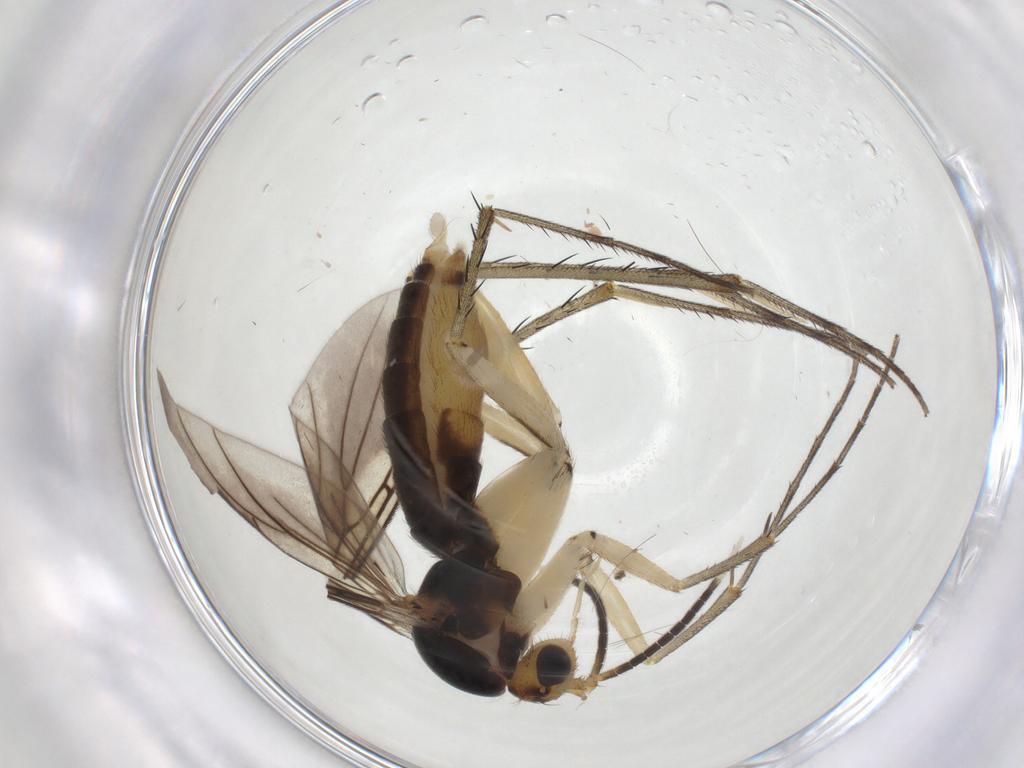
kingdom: Animalia
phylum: Arthropoda
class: Insecta
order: Diptera
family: Mycetophilidae
